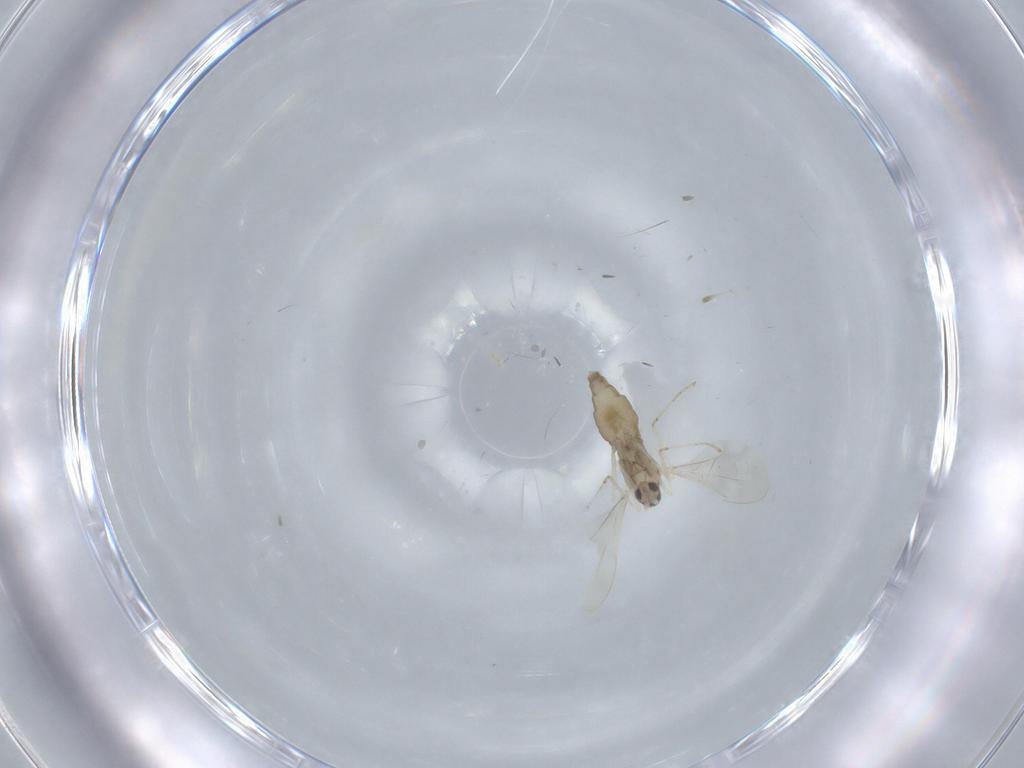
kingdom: Animalia
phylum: Arthropoda
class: Insecta
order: Diptera
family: Cecidomyiidae
